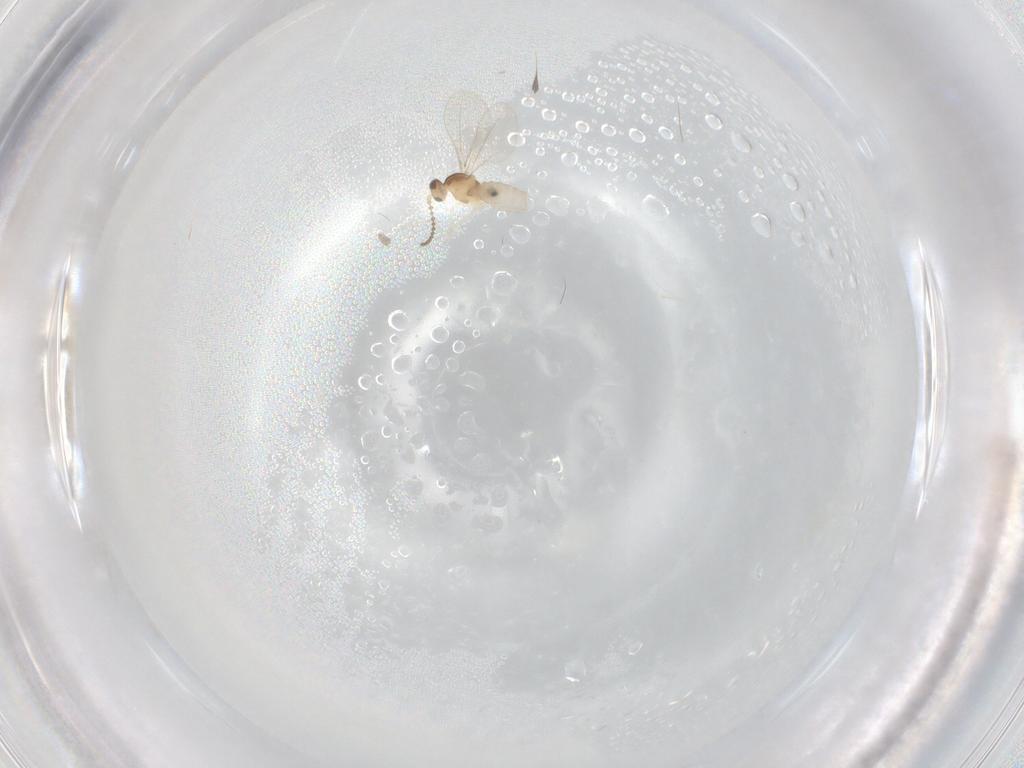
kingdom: Animalia
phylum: Arthropoda
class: Insecta
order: Diptera
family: Cecidomyiidae
